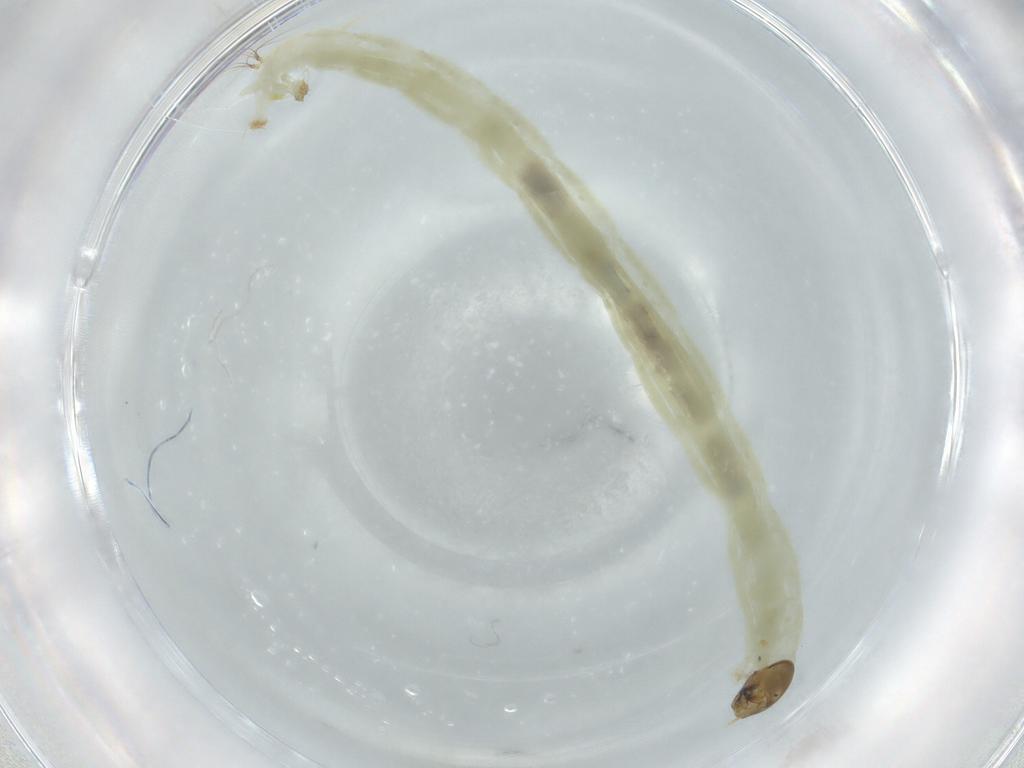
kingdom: Animalia
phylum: Arthropoda
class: Insecta
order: Diptera
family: Chironomidae
